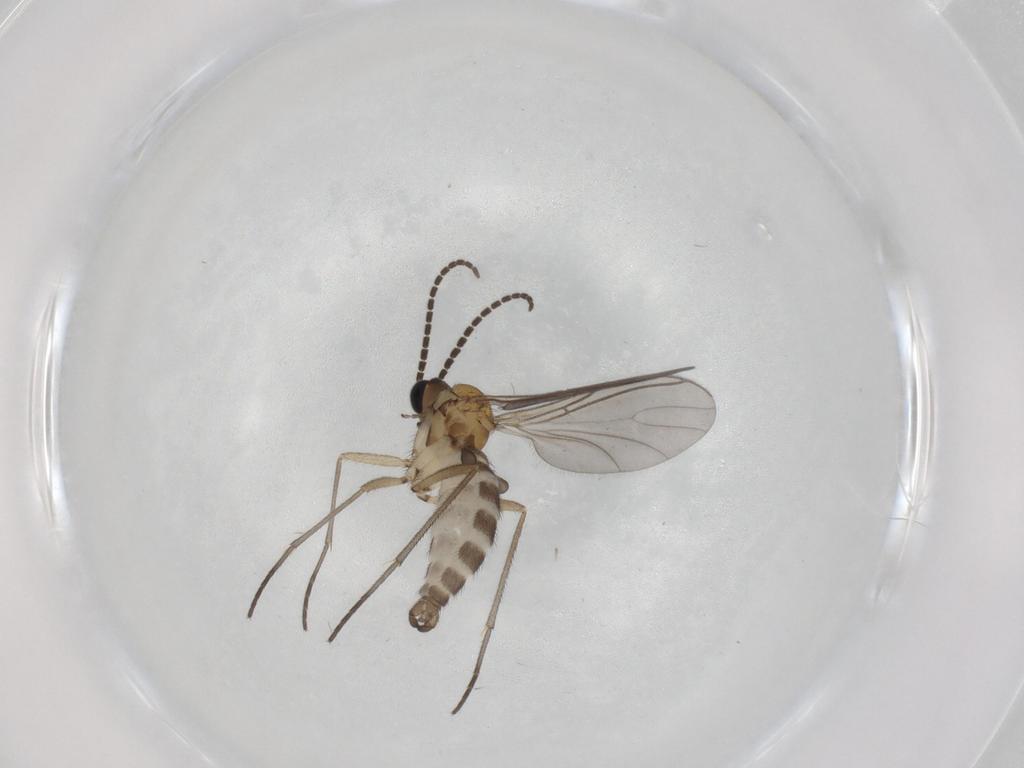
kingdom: Animalia
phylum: Arthropoda
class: Insecta
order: Diptera
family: Sciaridae
